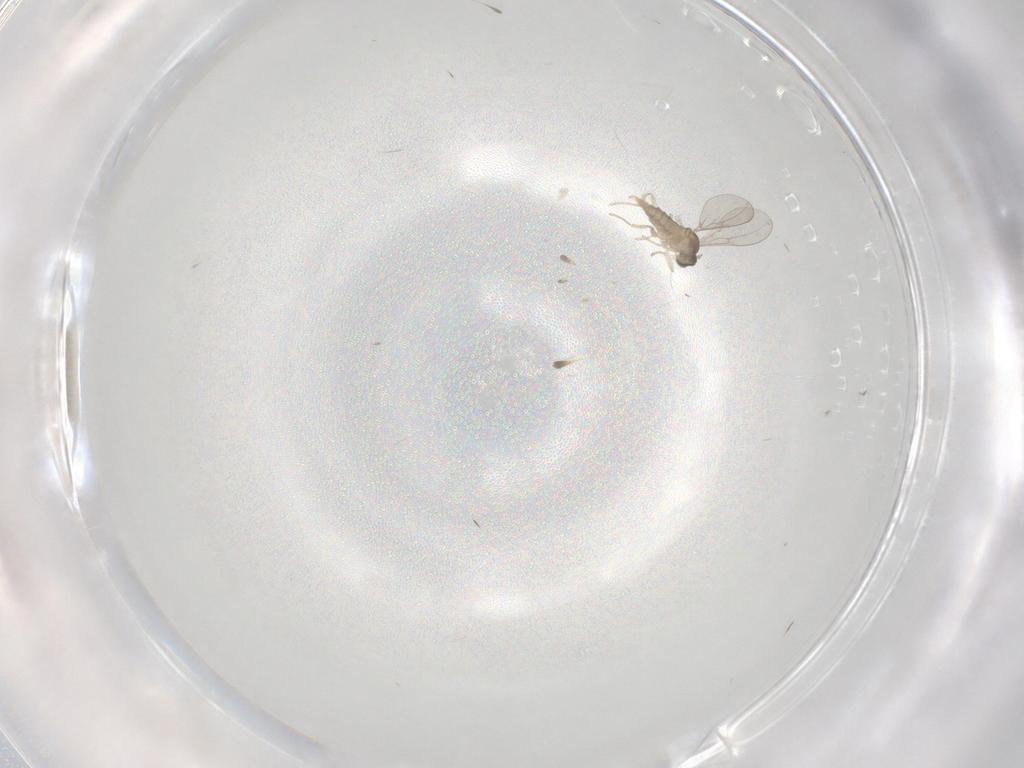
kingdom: Animalia
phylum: Arthropoda
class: Insecta
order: Diptera
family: Cecidomyiidae
